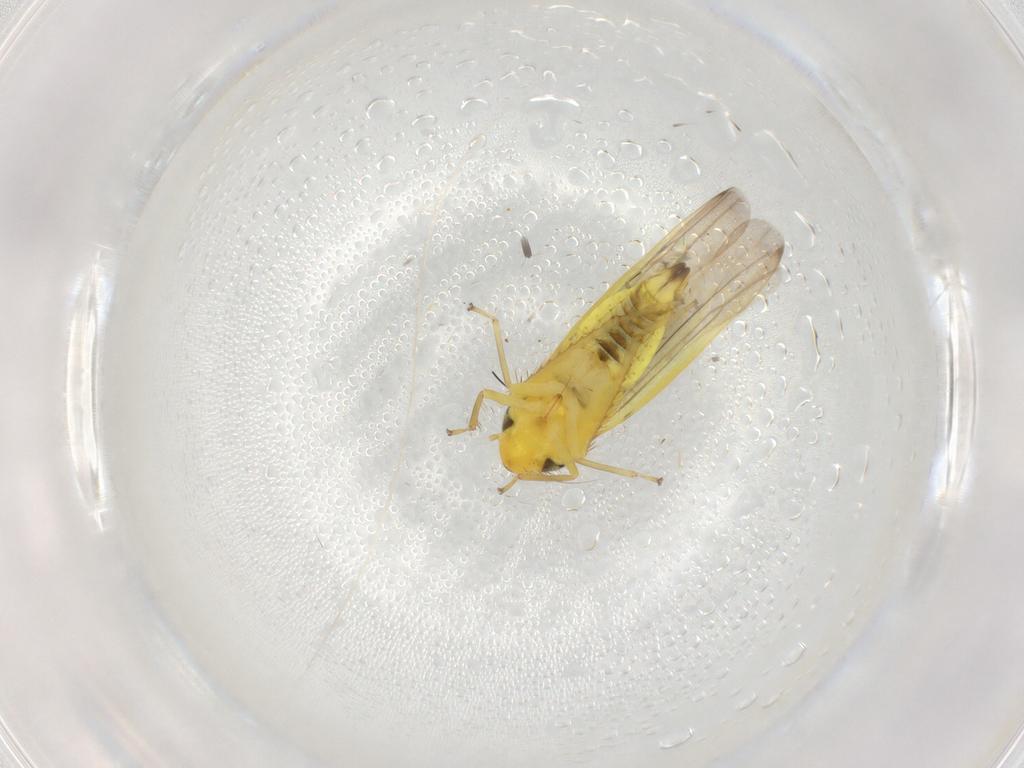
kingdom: Animalia
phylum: Arthropoda
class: Insecta
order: Hemiptera
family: Cicadellidae
